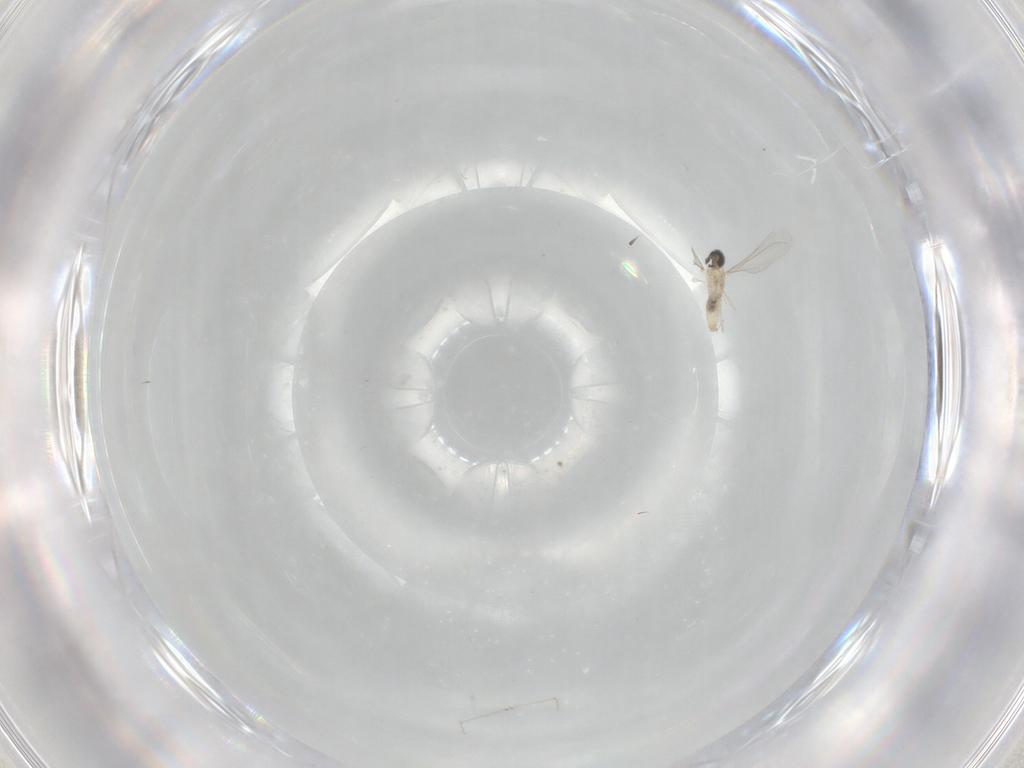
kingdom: Animalia
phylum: Arthropoda
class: Insecta
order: Diptera
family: Cecidomyiidae
